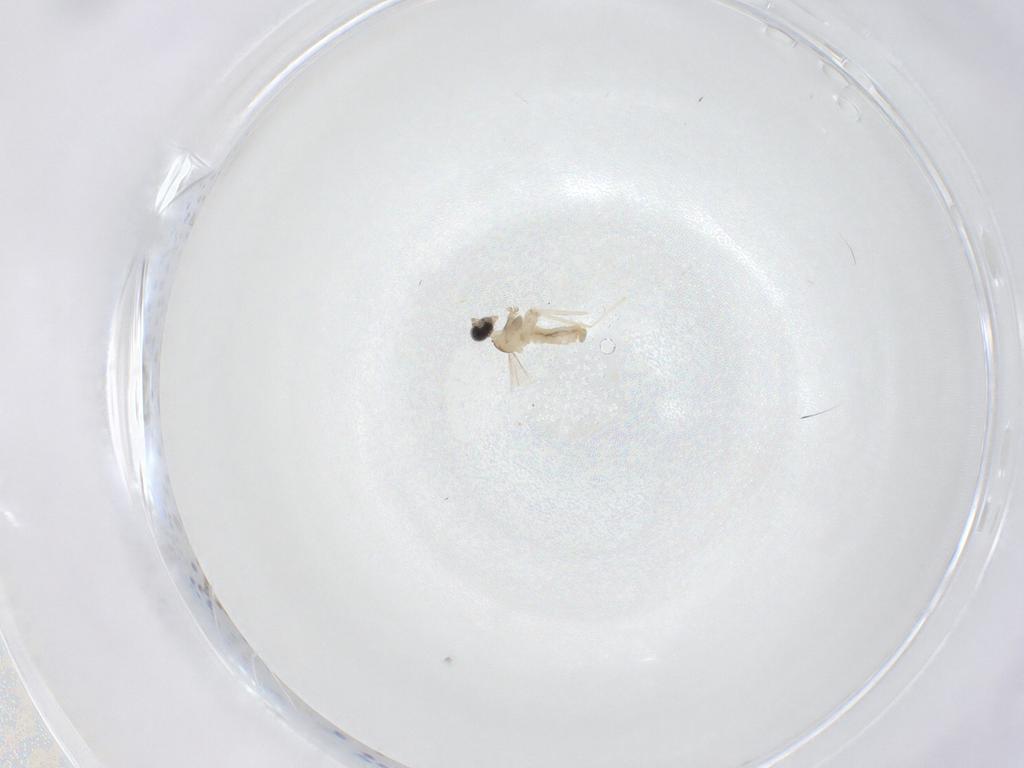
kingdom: Animalia
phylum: Arthropoda
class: Insecta
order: Diptera
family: Cecidomyiidae
